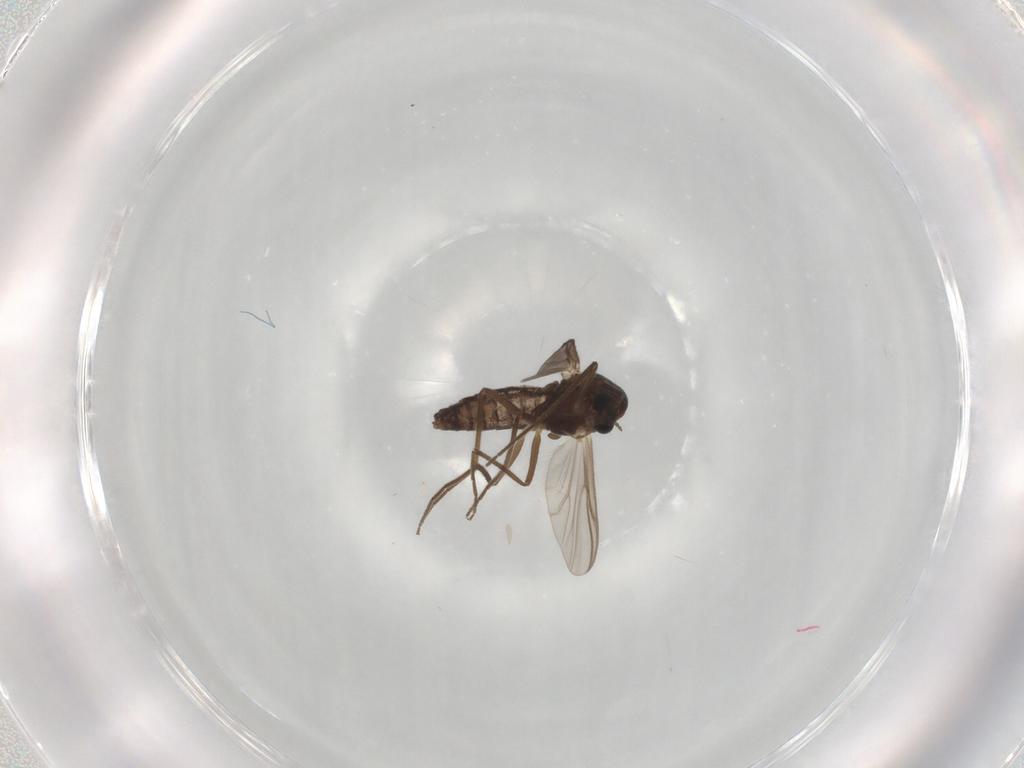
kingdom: Animalia
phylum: Arthropoda
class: Insecta
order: Diptera
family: Chironomidae
